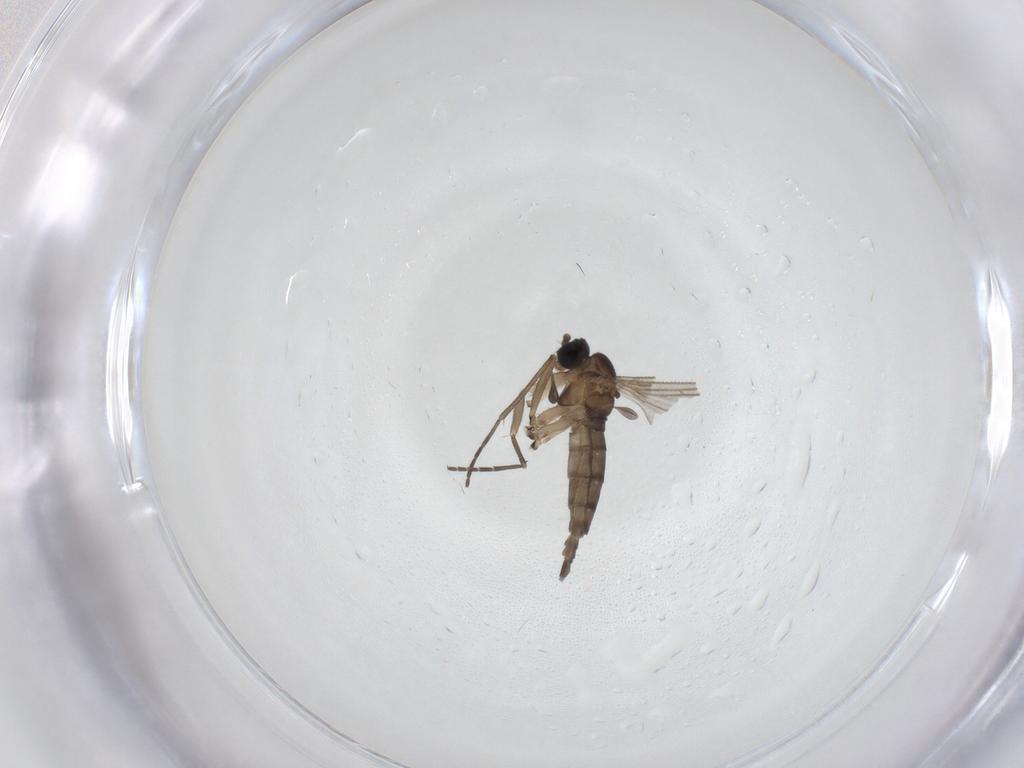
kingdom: Animalia
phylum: Arthropoda
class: Insecta
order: Diptera
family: Sciaridae
